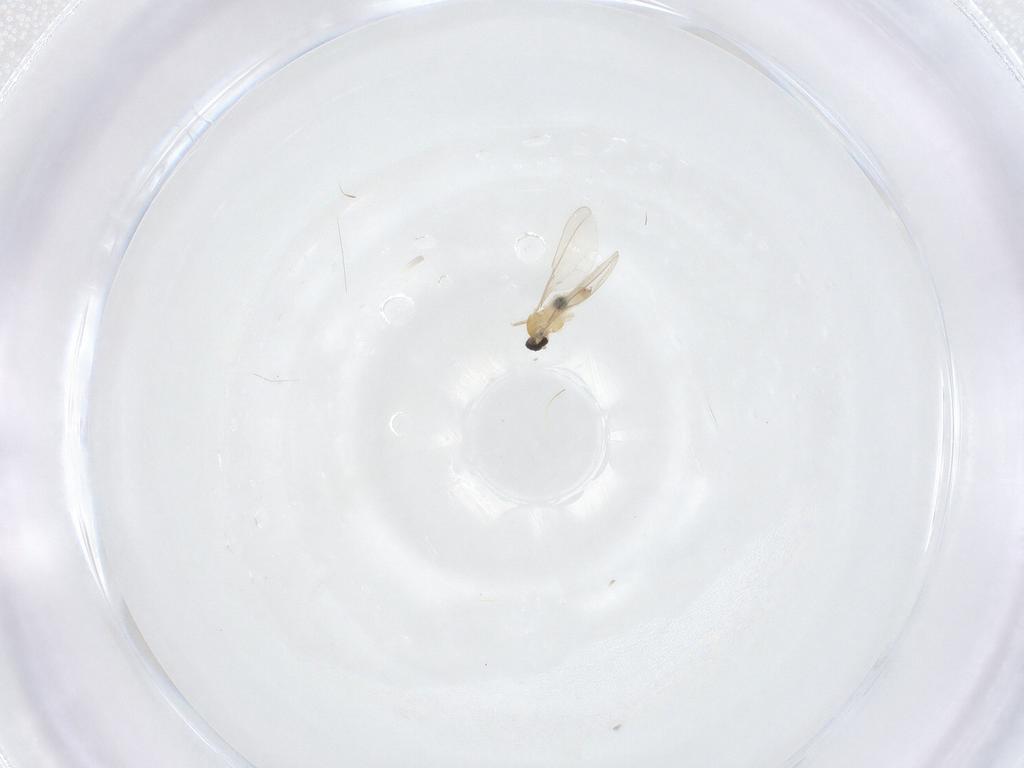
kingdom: Animalia
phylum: Arthropoda
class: Insecta
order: Diptera
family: Cecidomyiidae
